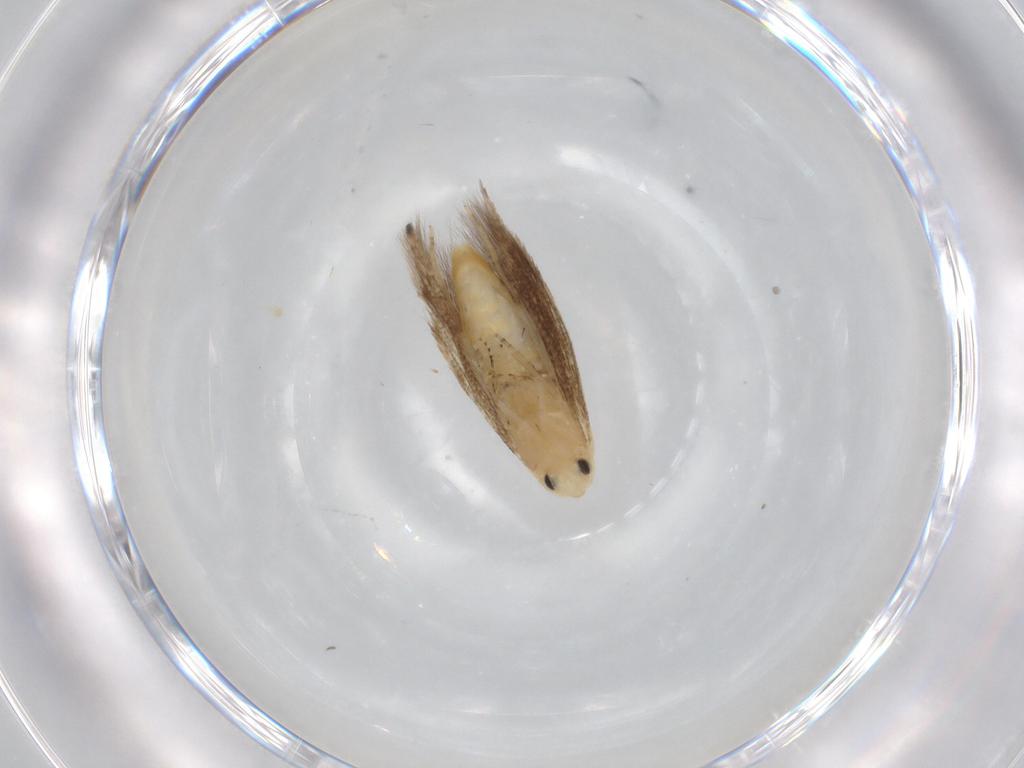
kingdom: Animalia
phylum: Arthropoda
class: Insecta
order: Lepidoptera
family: Tineidae
